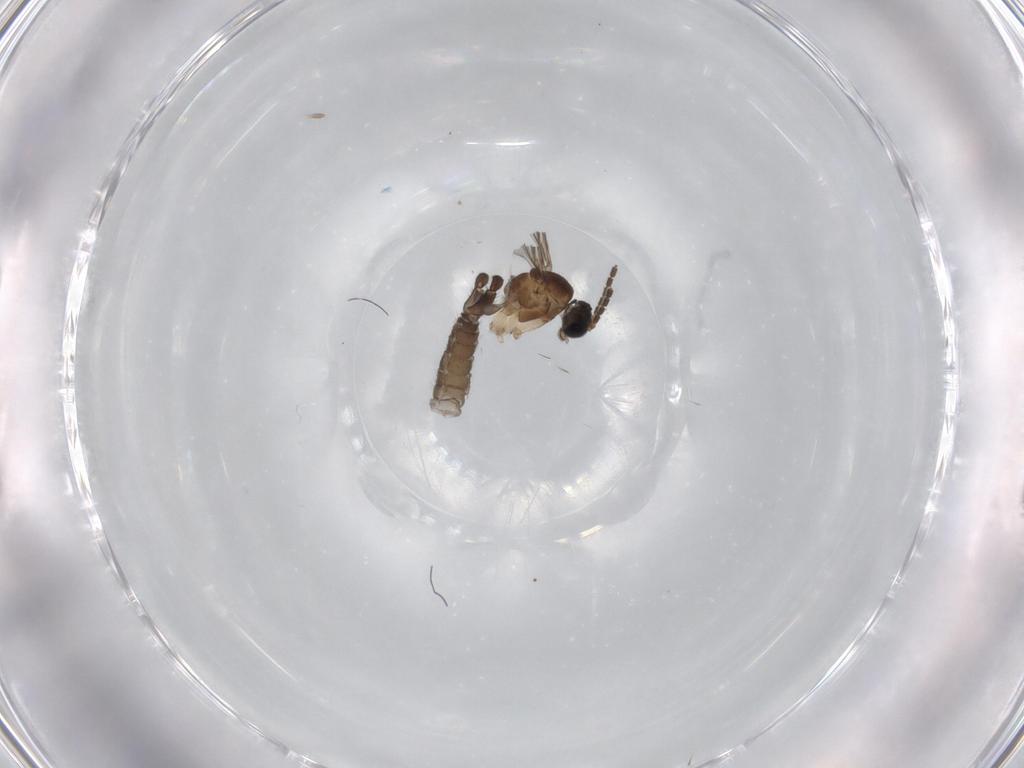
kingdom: Animalia
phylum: Arthropoda
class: Insecta
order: Diptera
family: Sciaridae
